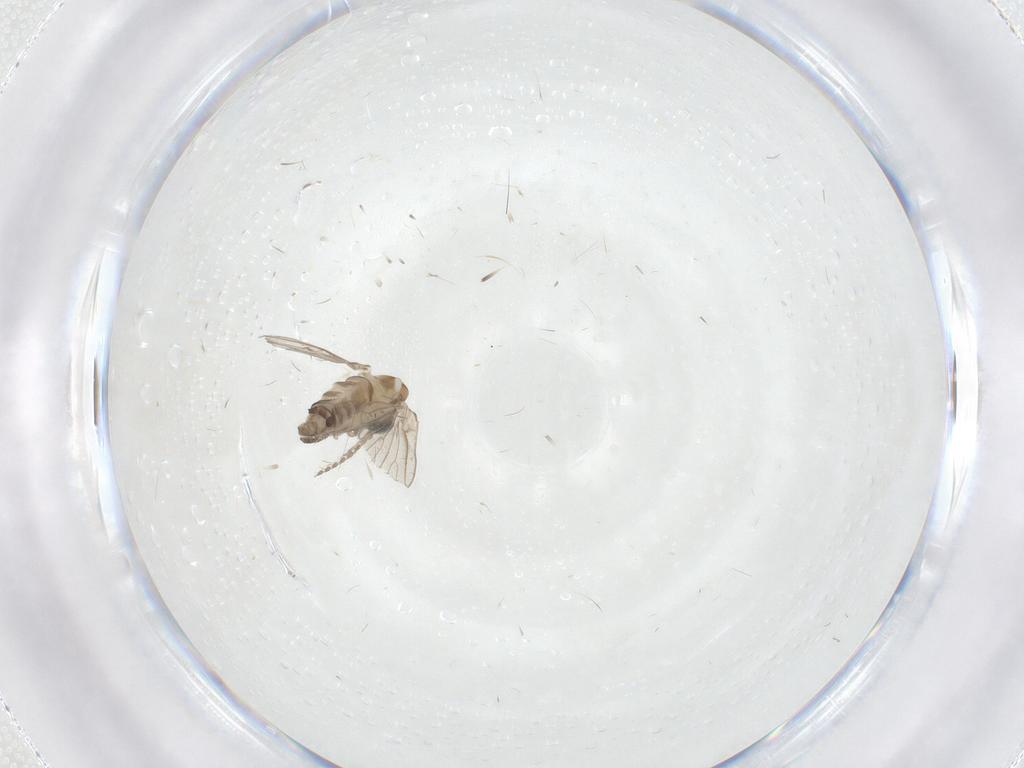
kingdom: Animalia
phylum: Arthropoda
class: Insecta
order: Diptera
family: Psychodidae
